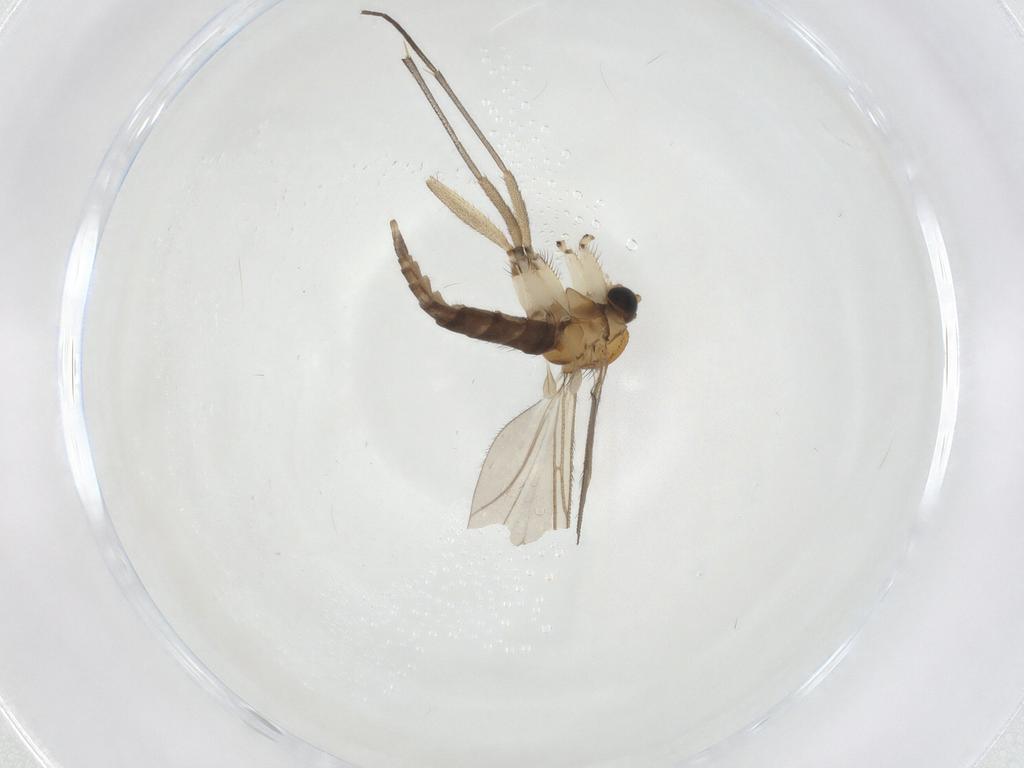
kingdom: Animalia
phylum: Arthropoda
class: Insecta
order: Diptera
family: Sciaridae
